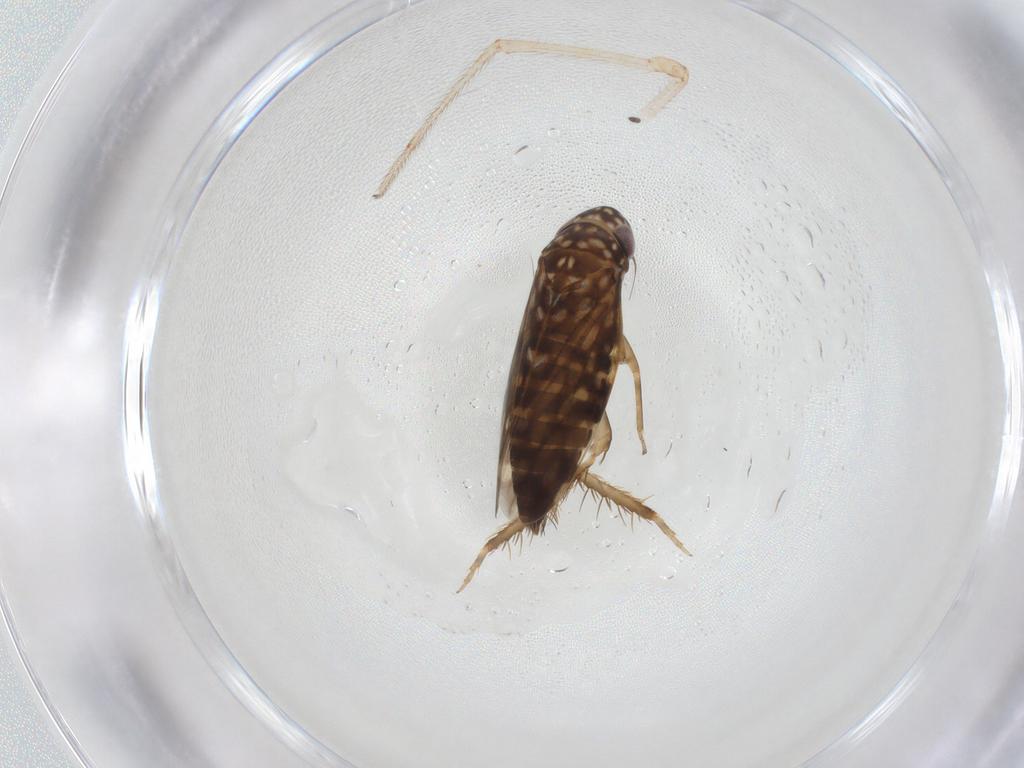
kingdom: Animalia
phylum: Arthropoda
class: Insecta
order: Hemiptera
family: Cicadellidae
